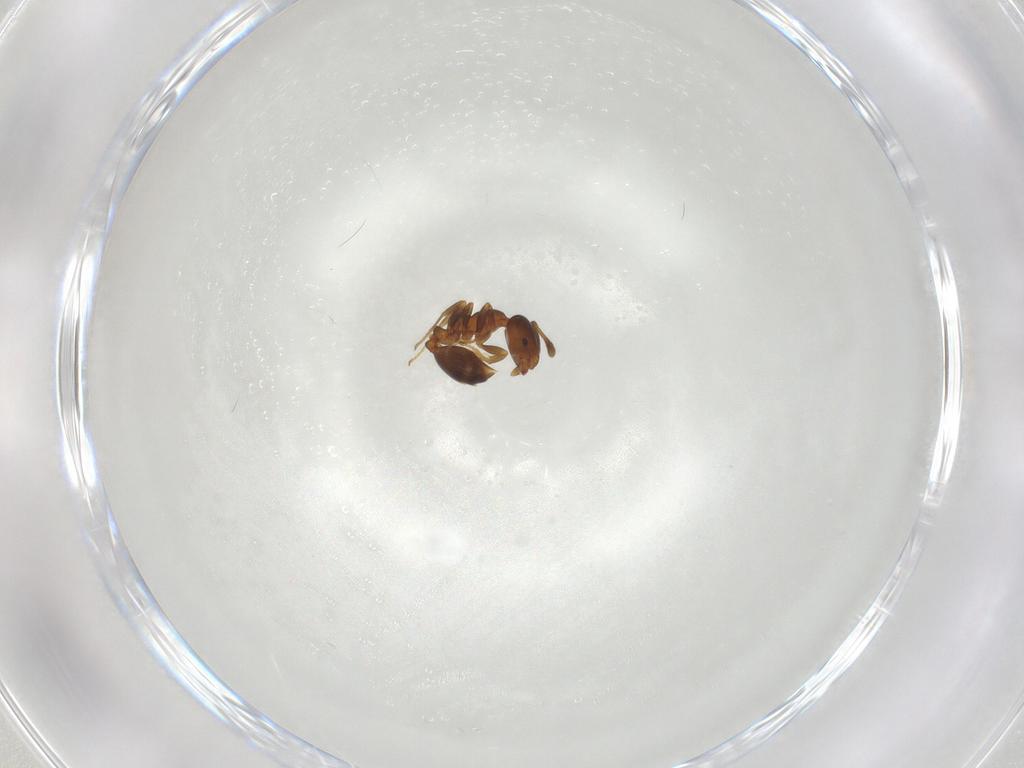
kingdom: Animalia
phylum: Arthropoda
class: Insecta
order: Hymenoptera
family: Formicidae
